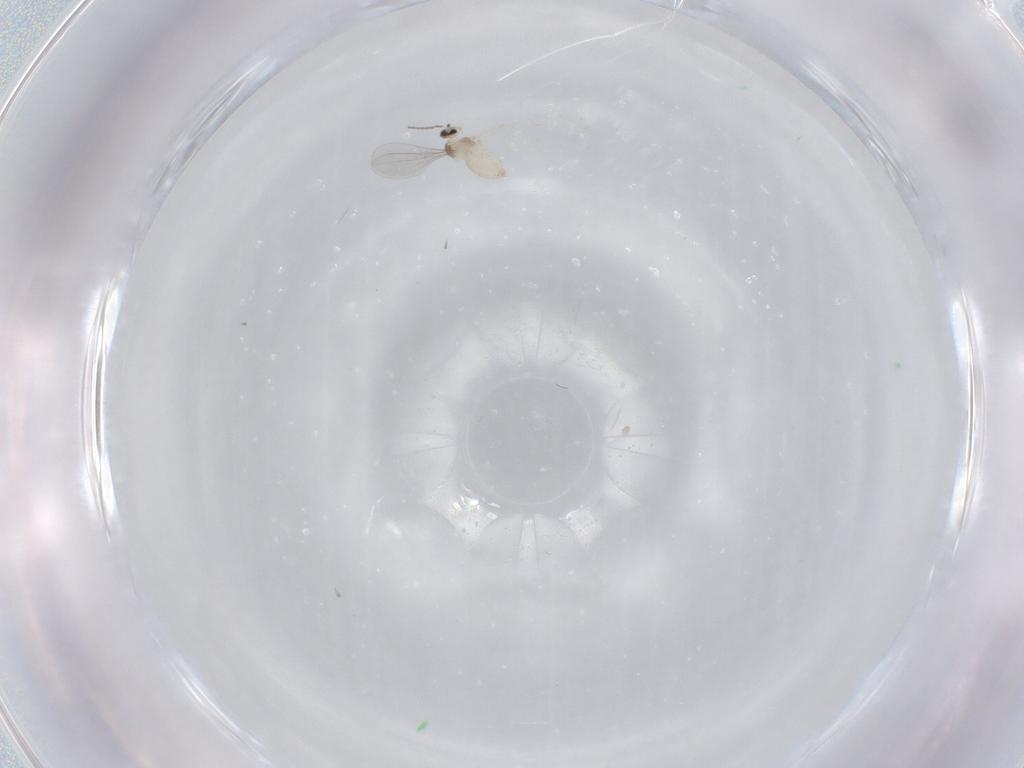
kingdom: Animalia
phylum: Arthropoda
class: Insecta
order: Diptera
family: Cecidomyiidae
